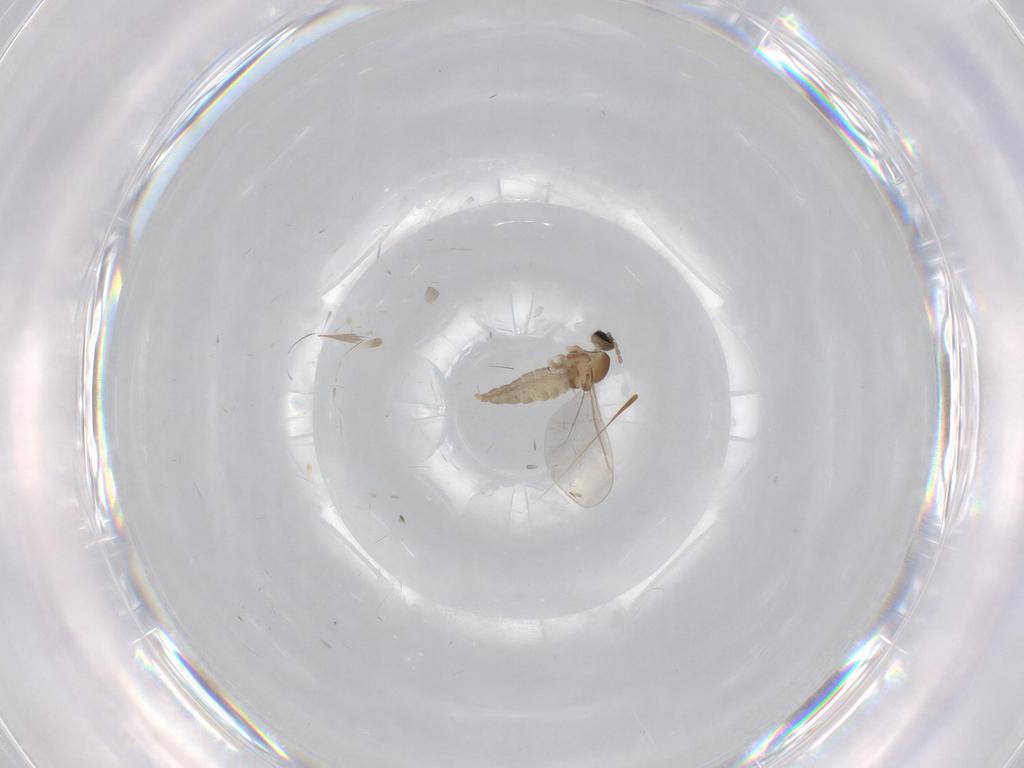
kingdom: Animalia
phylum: Arthropoda
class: Insecta
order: Diptera
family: Cecidomyiidae
